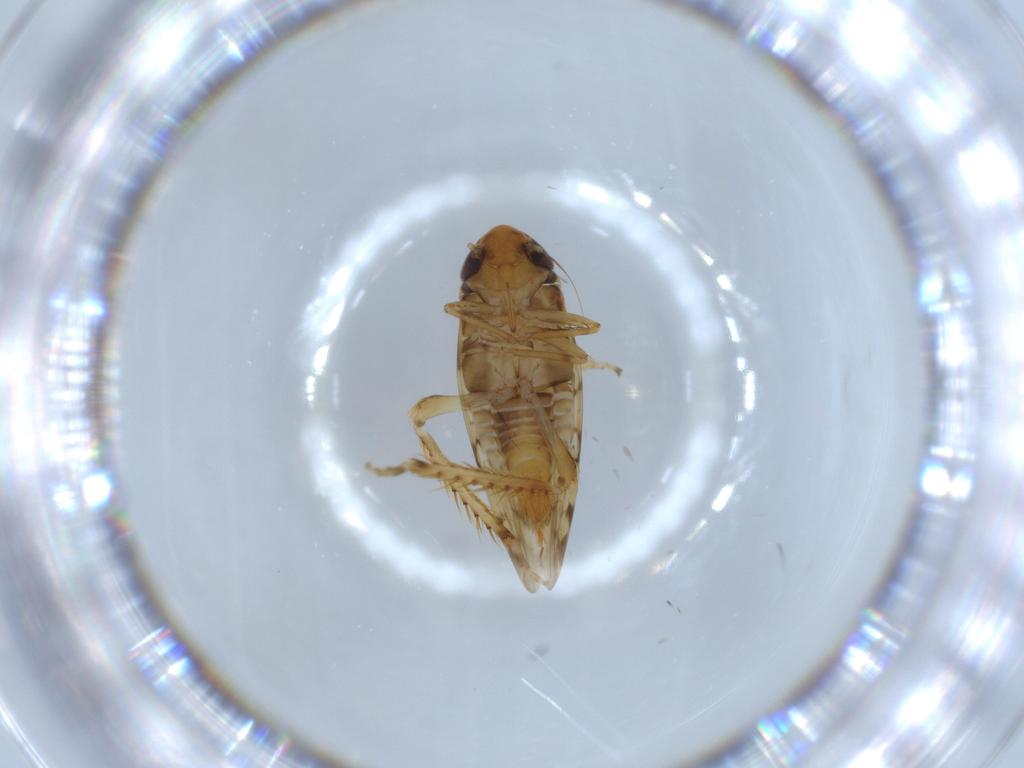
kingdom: Animalia
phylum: Arthropoda
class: Insecta
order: Hemiptera
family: Cicadellidae
